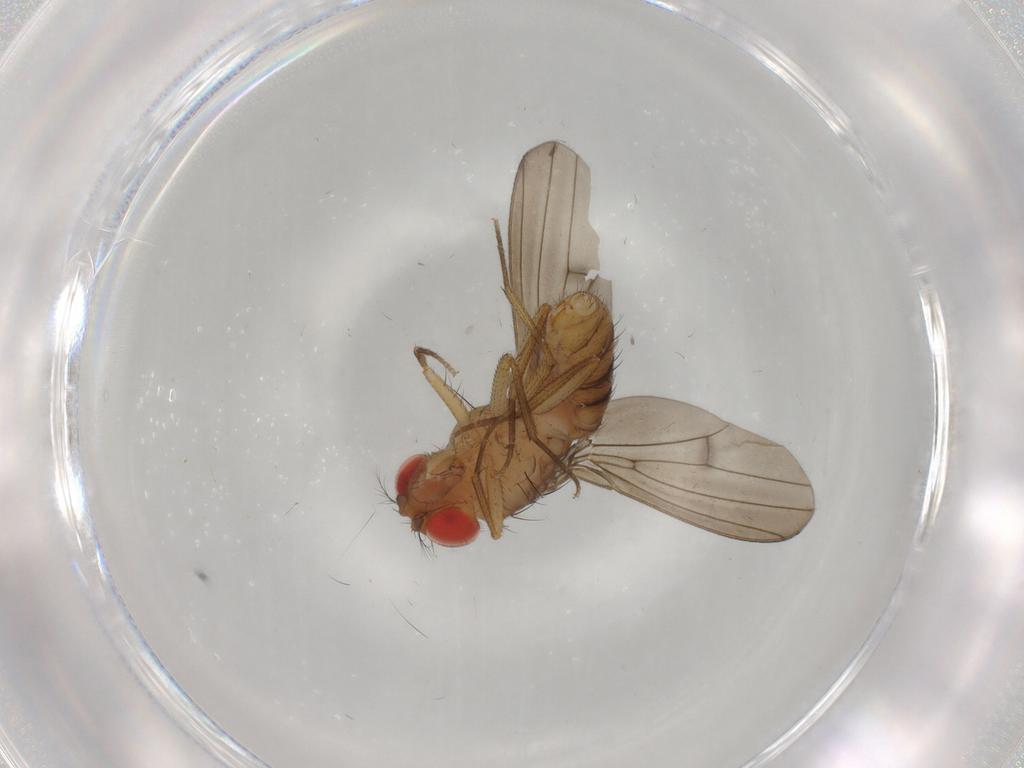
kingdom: Animalia
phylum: Arthropoda
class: Insecta
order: Diptera
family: Drosophilidae
